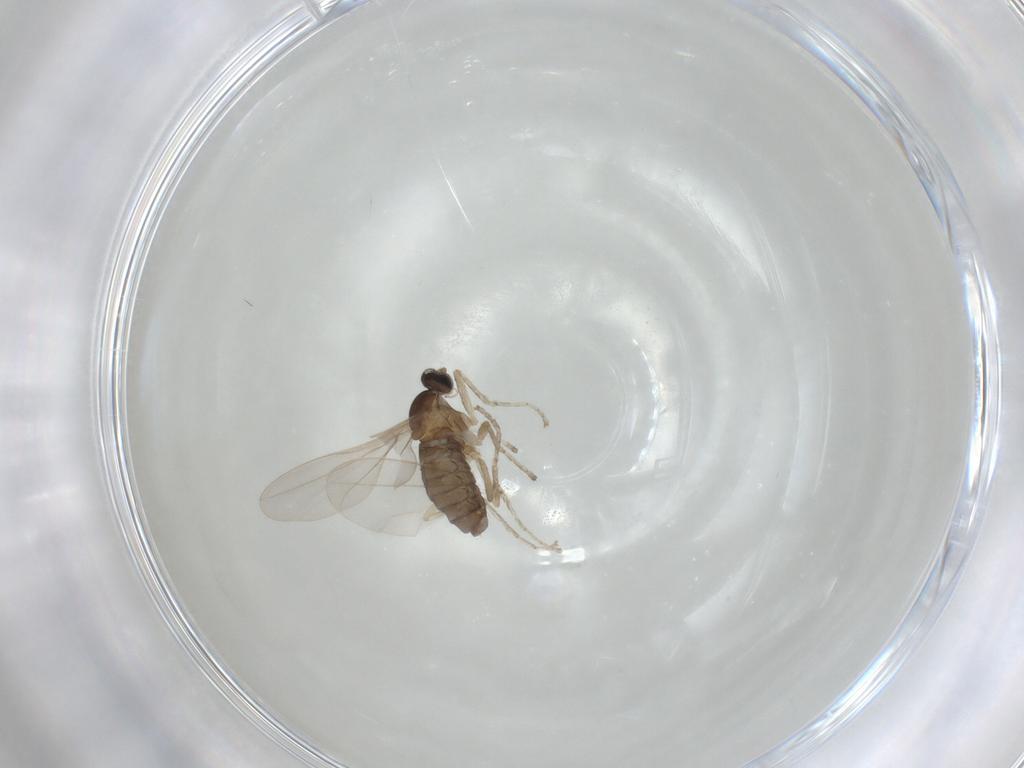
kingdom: Animalia
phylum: Arthropoda
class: Insecta
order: Diptera
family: Cecidomyiidae
